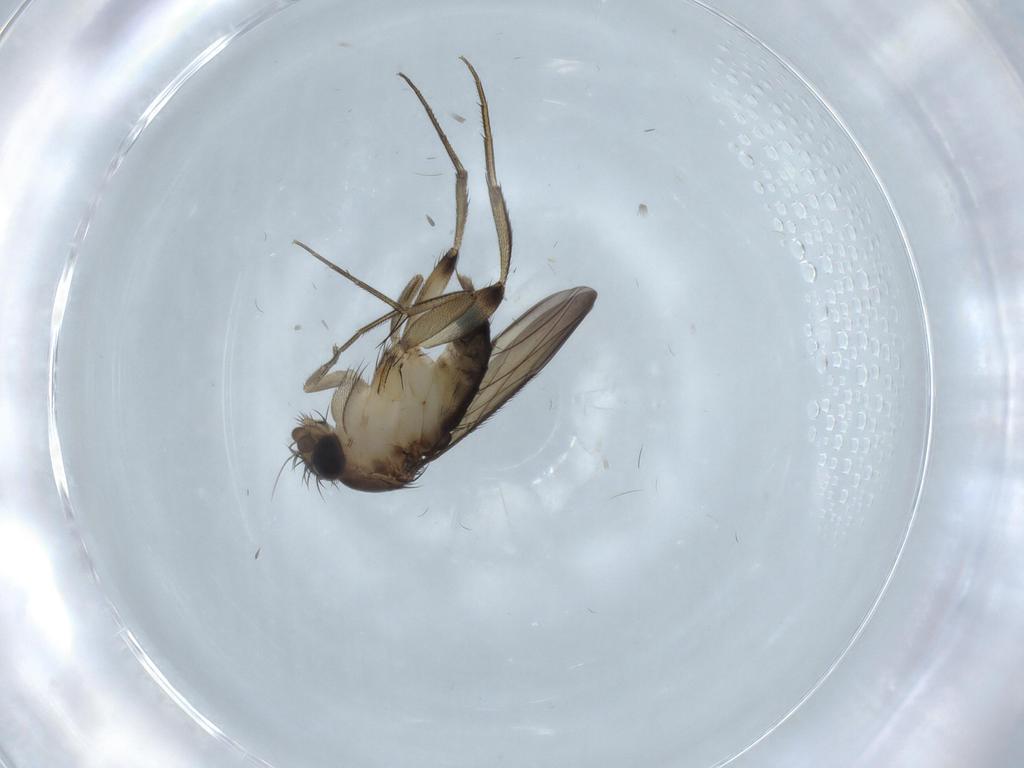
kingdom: Animalia
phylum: Arthropoda
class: Insecta
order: Diptera
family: Phoridae
